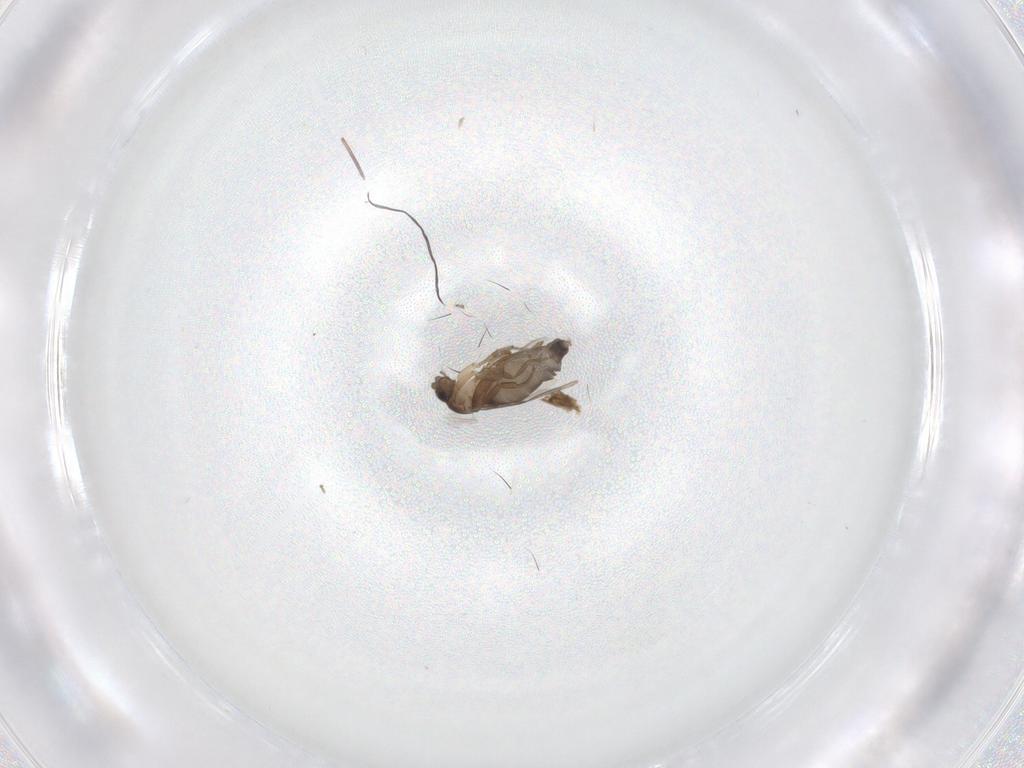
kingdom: Animalia
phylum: Arthropoda
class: Insecta
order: Diptera
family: Phoridae
